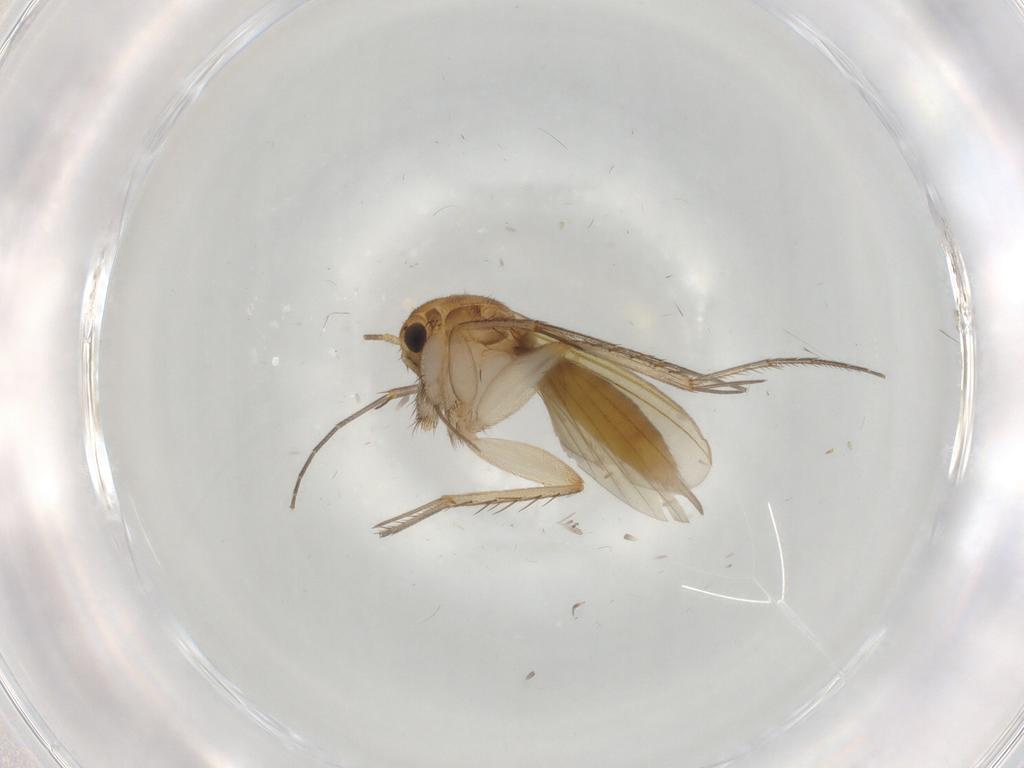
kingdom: Animalia
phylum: Arthropoda
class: Insecta
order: Diptera
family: Mycetophilidae
